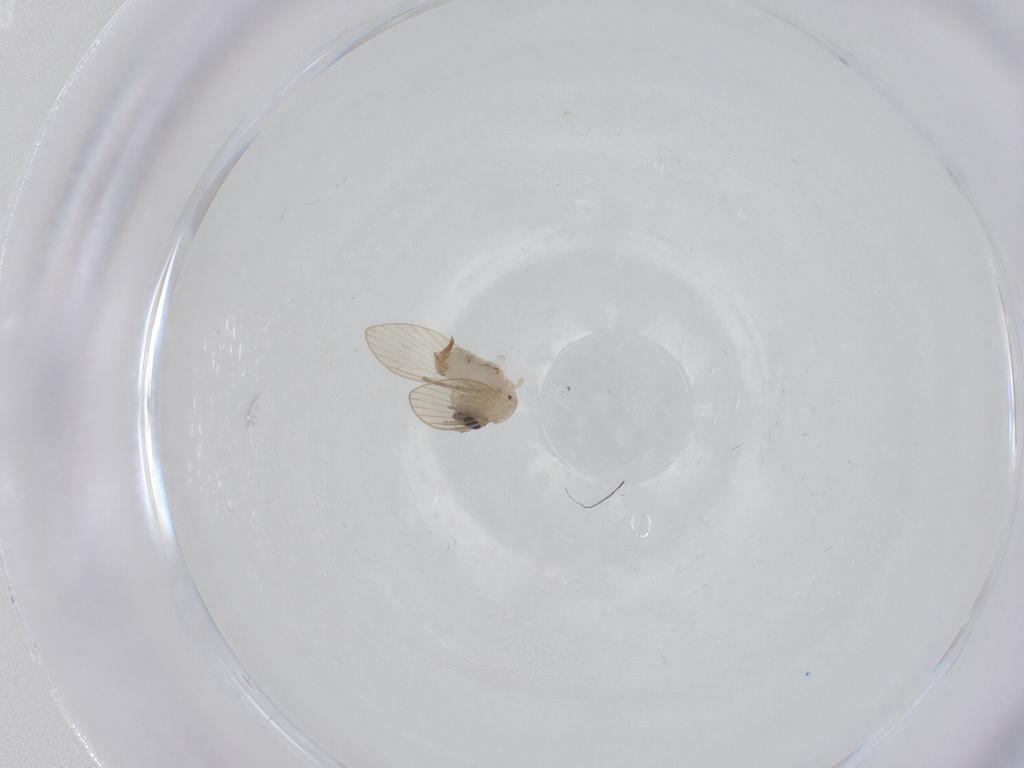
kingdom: Animalia
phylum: Arthropoda
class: Insecta
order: Diptera
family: Psychodidae
